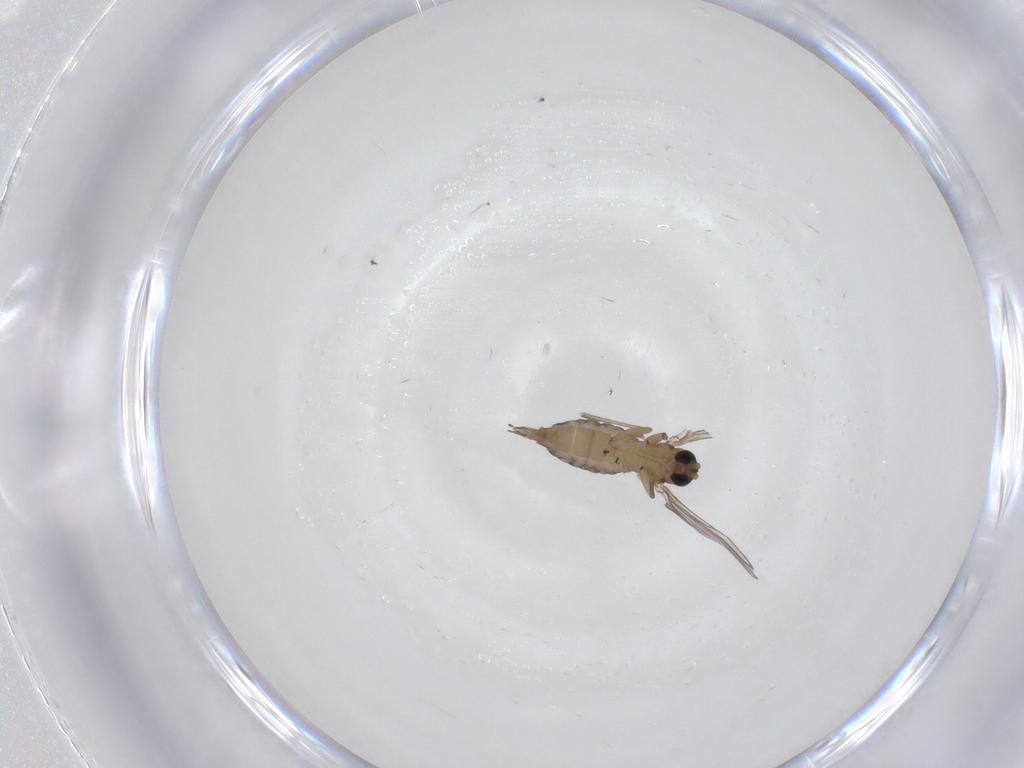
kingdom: Animalia
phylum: Arthropoda
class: Insecta
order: Diptera
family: Sciaridae
